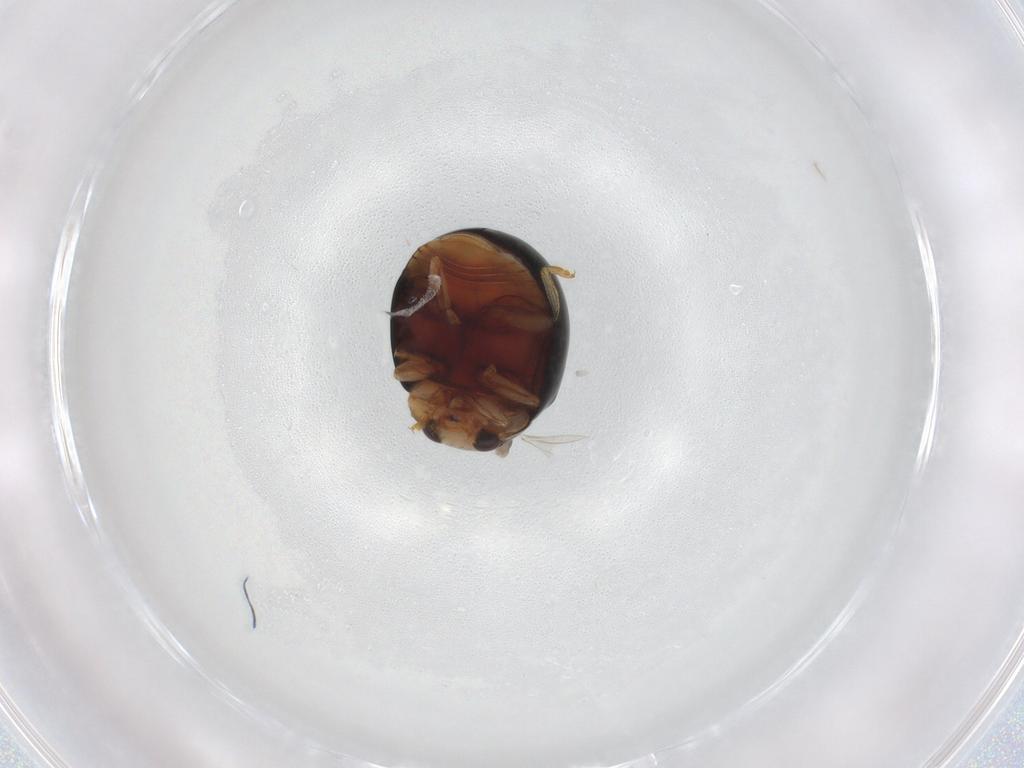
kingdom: Animalia
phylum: Arthropoda
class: Insecta
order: Coleoptera
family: Coccinellidae
